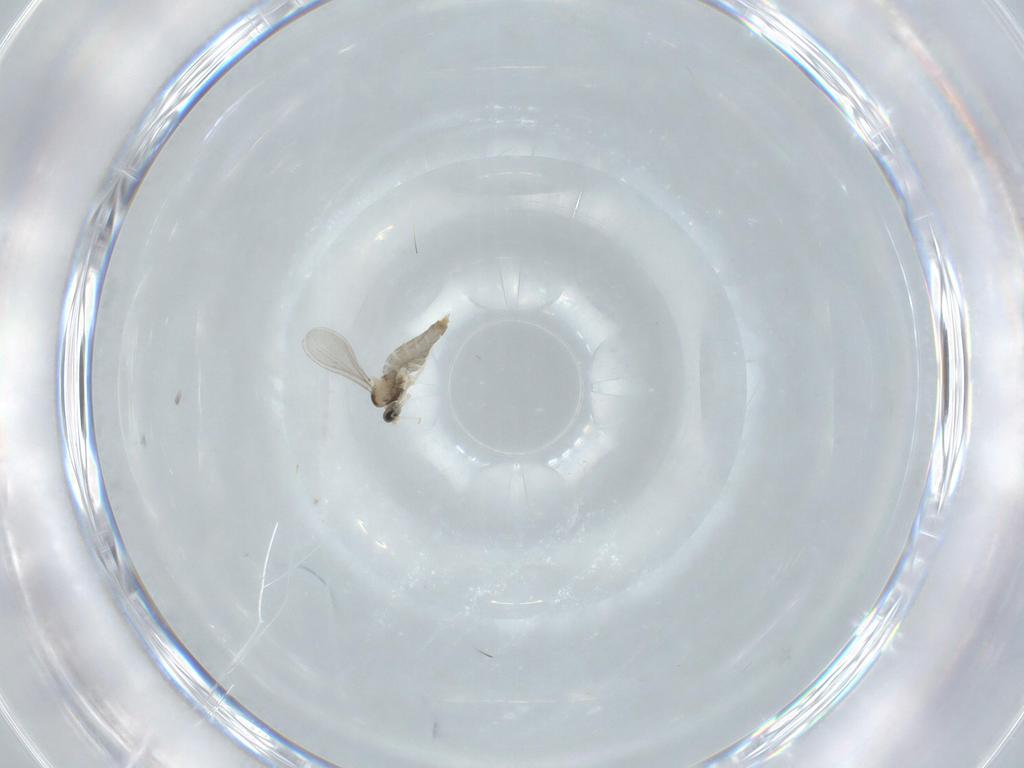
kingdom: Animalia
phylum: Arthropoda
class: Insecta
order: Diptera
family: Cecidomyiidae
